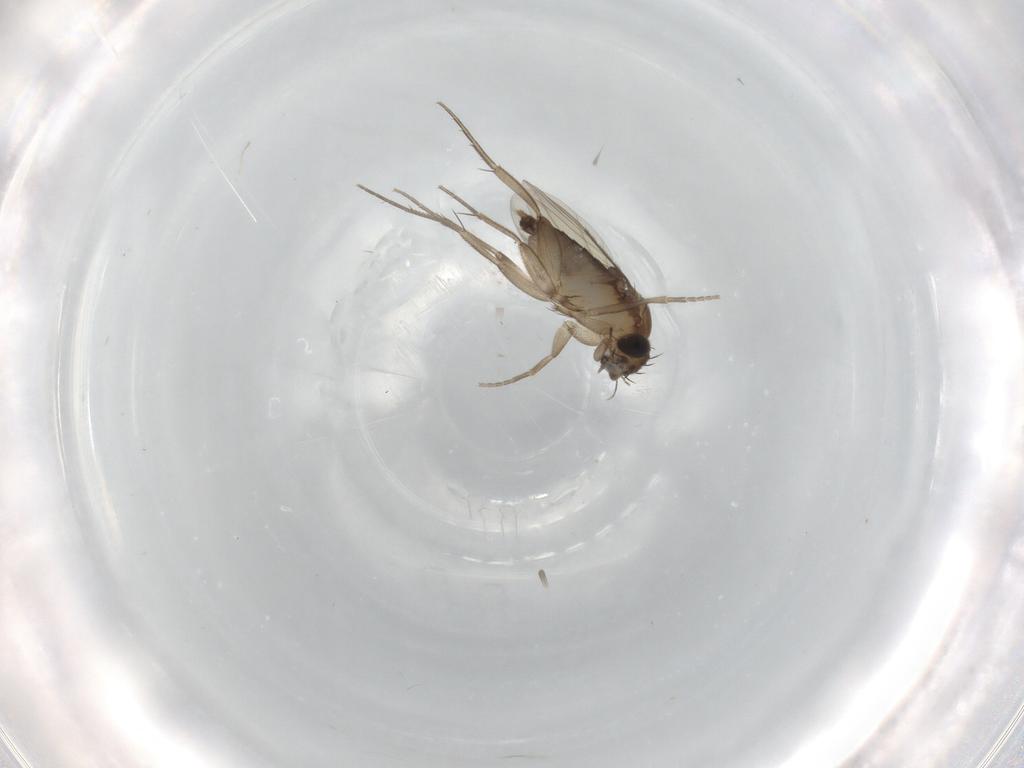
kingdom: Animalia
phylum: Arthropoda
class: Insecta
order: Diptera
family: Phoridae
